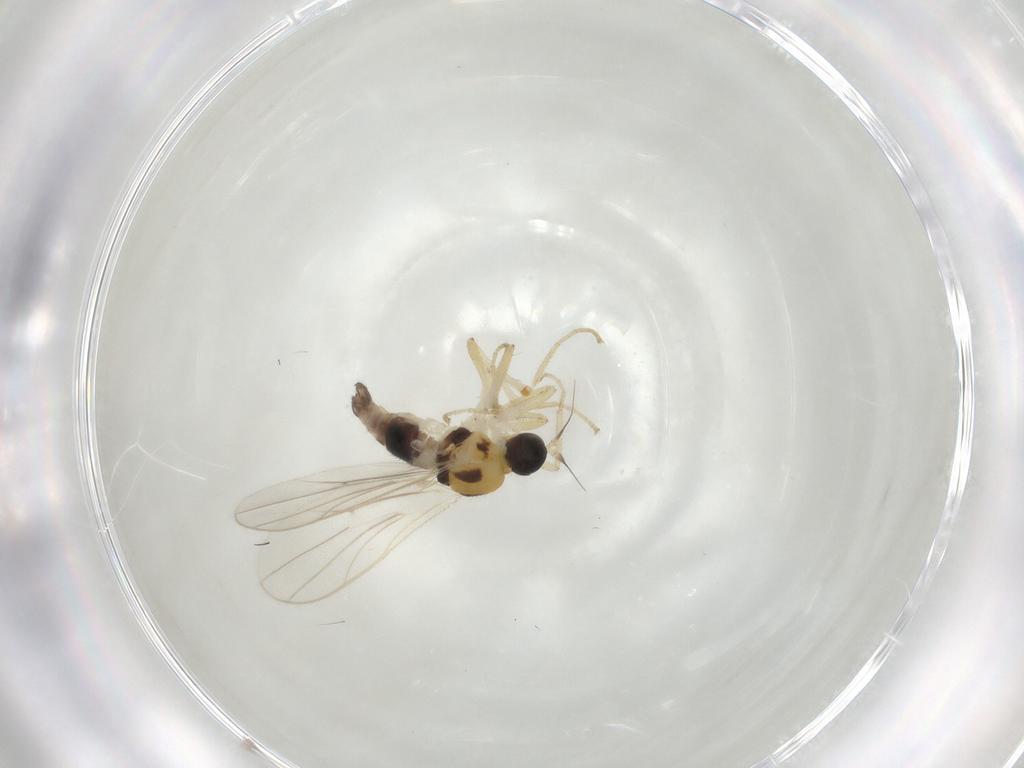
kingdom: Animalia
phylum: Arthropoda
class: Insecta
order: Diptera
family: Hybotidae
